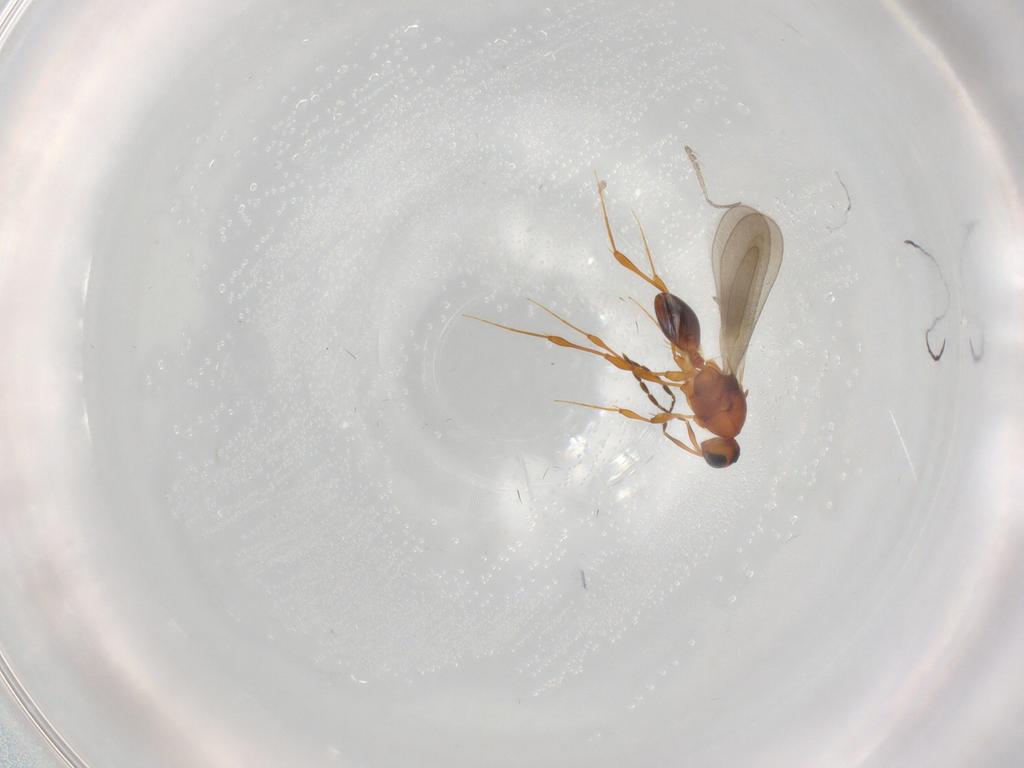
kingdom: Animalia
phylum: Arthropoda
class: Insecta
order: Hymenoptera
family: Platygastridae
